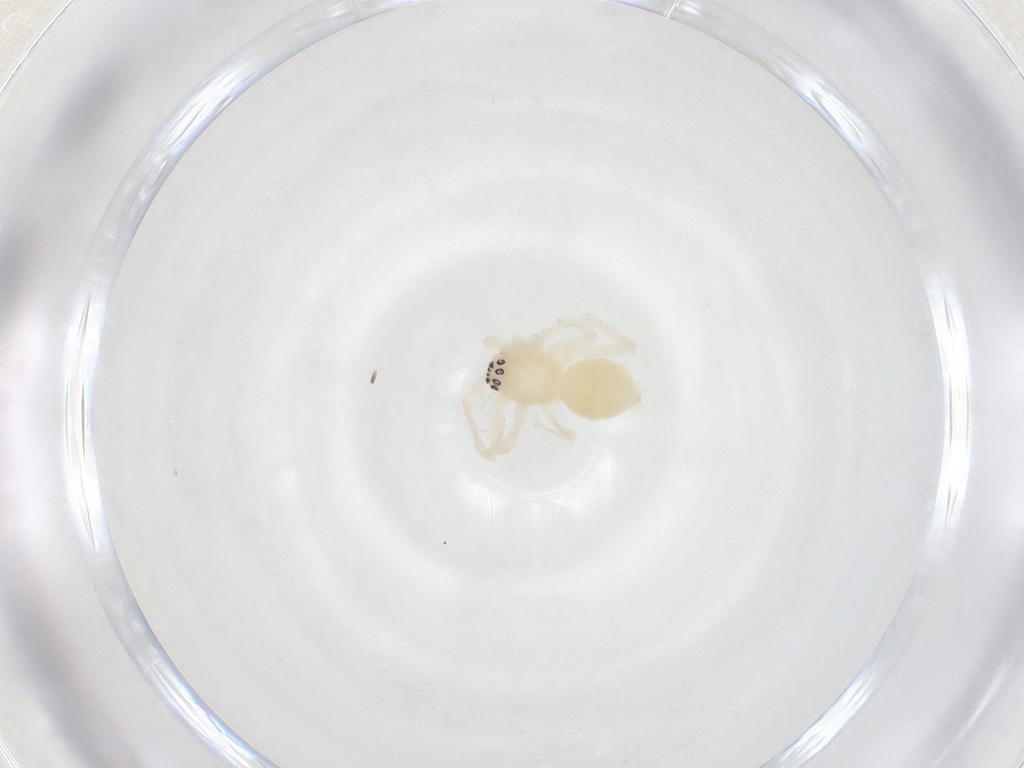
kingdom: Animalia
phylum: Arthropoda
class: Arachnida
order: Araneae
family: Anyphaenidae
